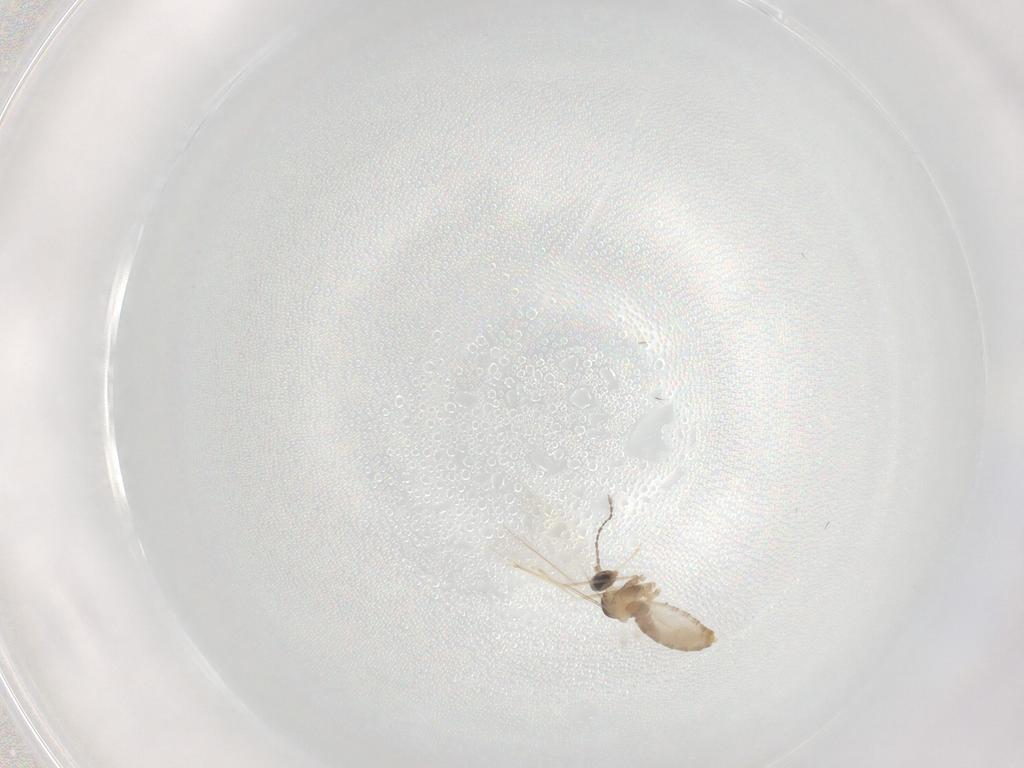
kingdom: Animalia
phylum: Arthropoda
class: Insecta
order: Diptera
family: Cecidomyiidae
